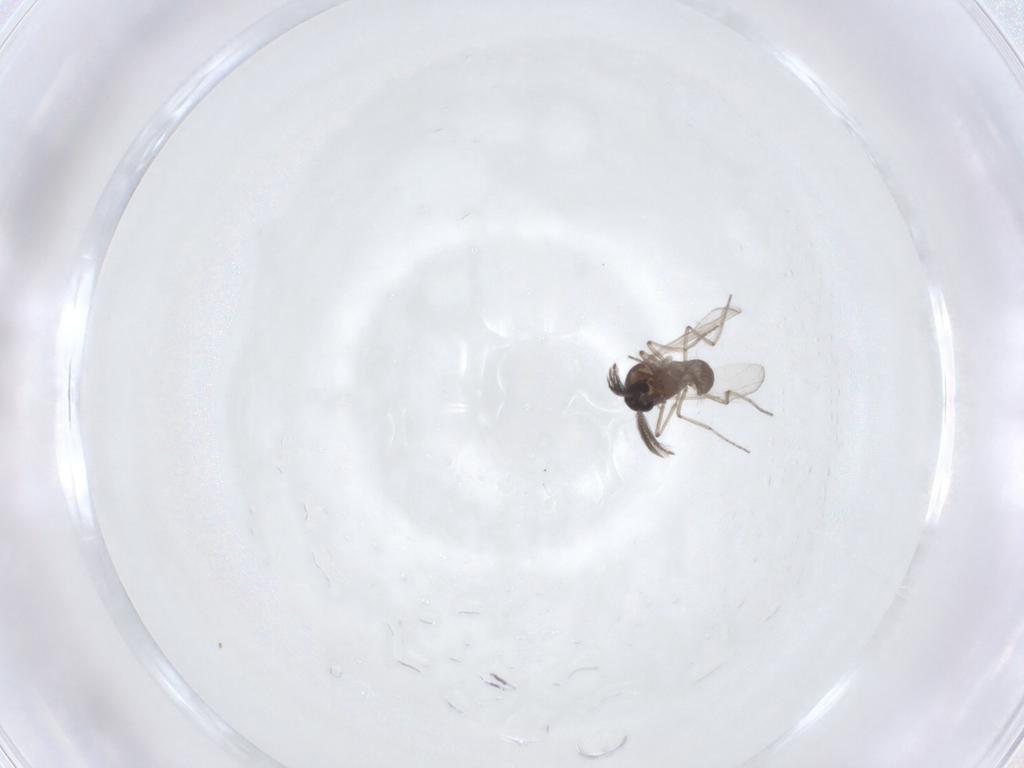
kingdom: Animalia
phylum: Arthropoda
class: Insecta
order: Diptera
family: Ceratopogonidae
